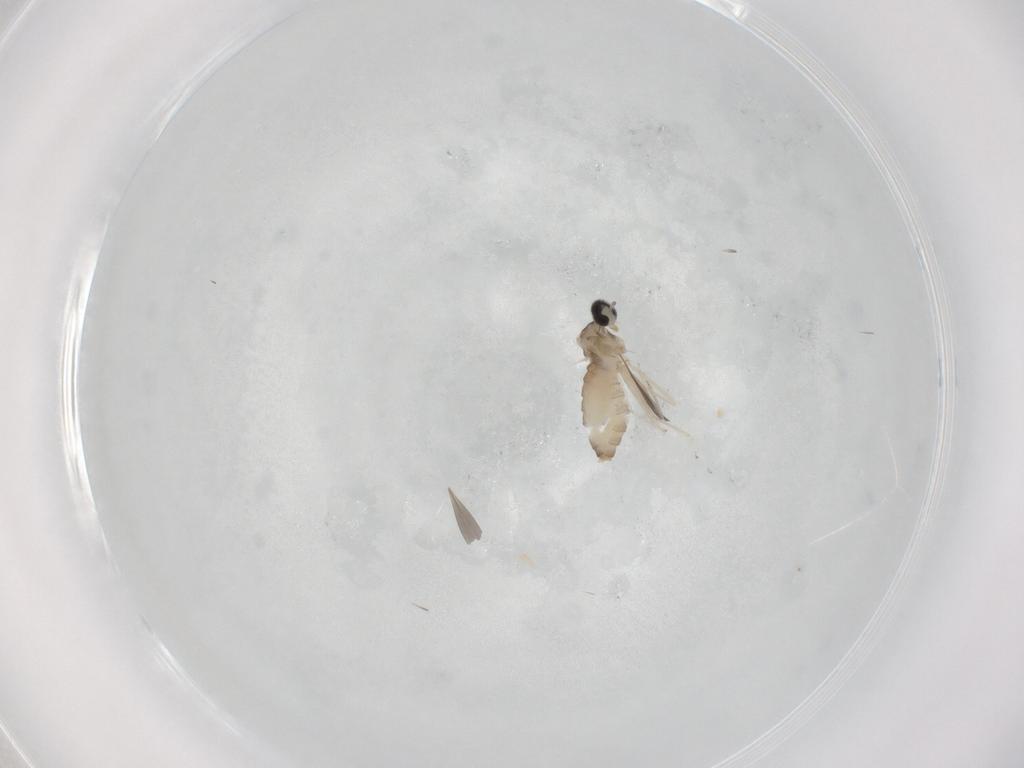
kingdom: Animalia
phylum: Arthropoda
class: Insecta
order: Diptera
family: Cecidomyiidae
